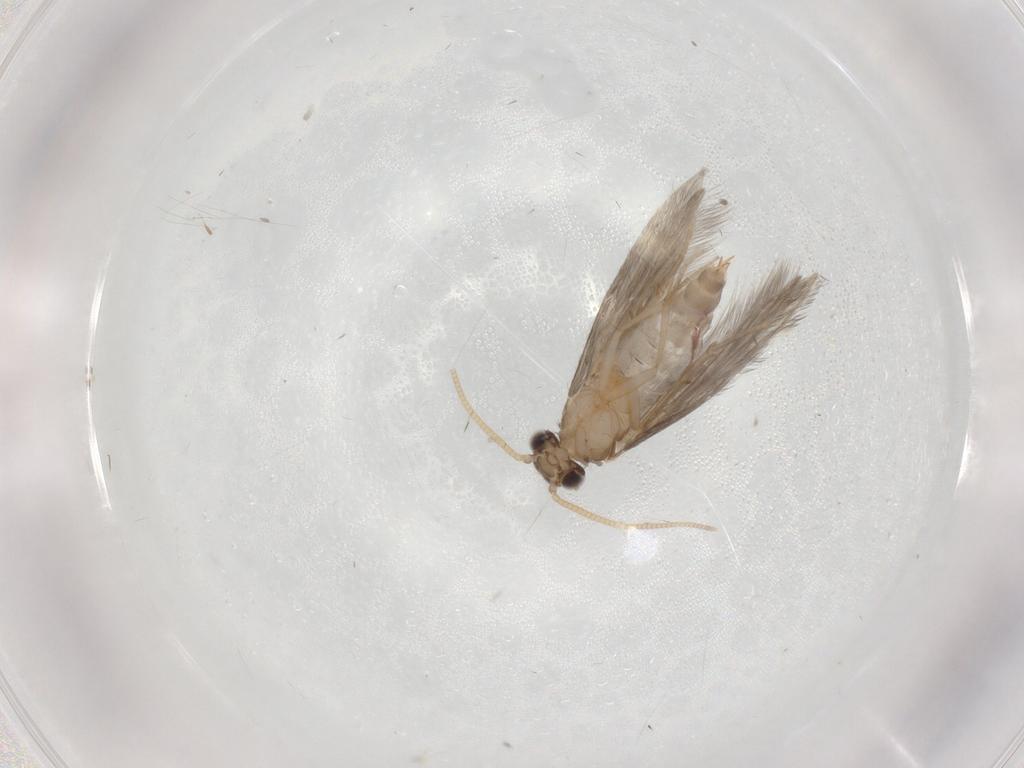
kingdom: Animalia
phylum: Arthropoda
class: Insecta
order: Trichoptera
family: Hydroptilidae
